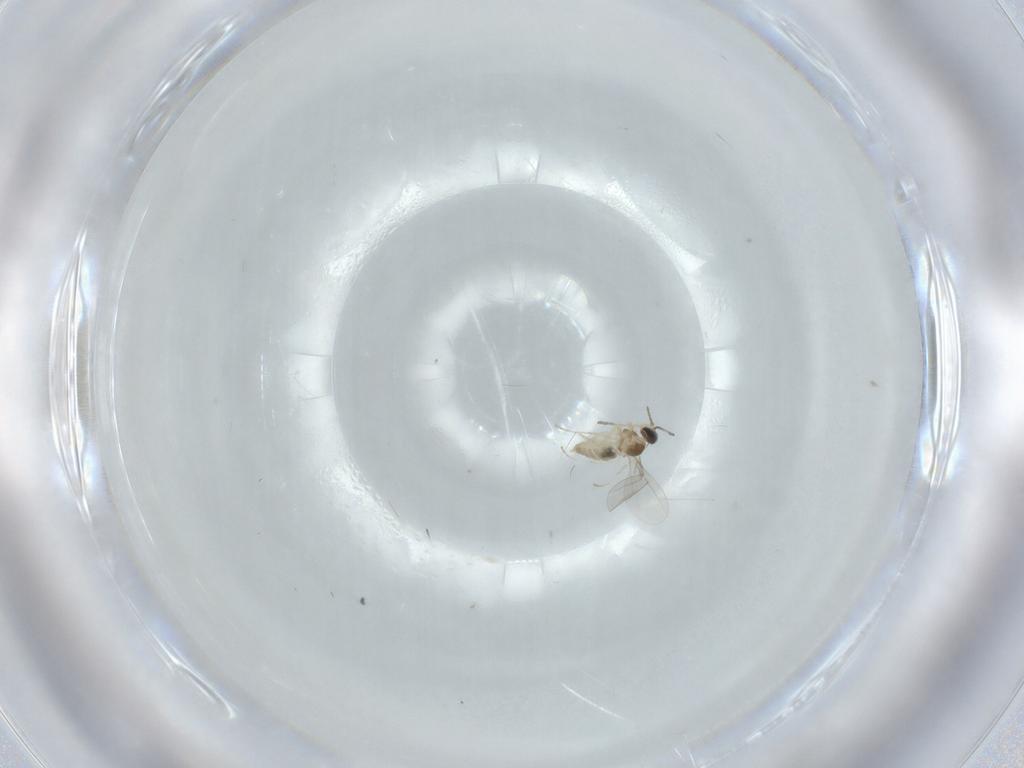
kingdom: Animalia
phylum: Arthropoda
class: Insecta
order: Diptera
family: Cecidomyiidae
